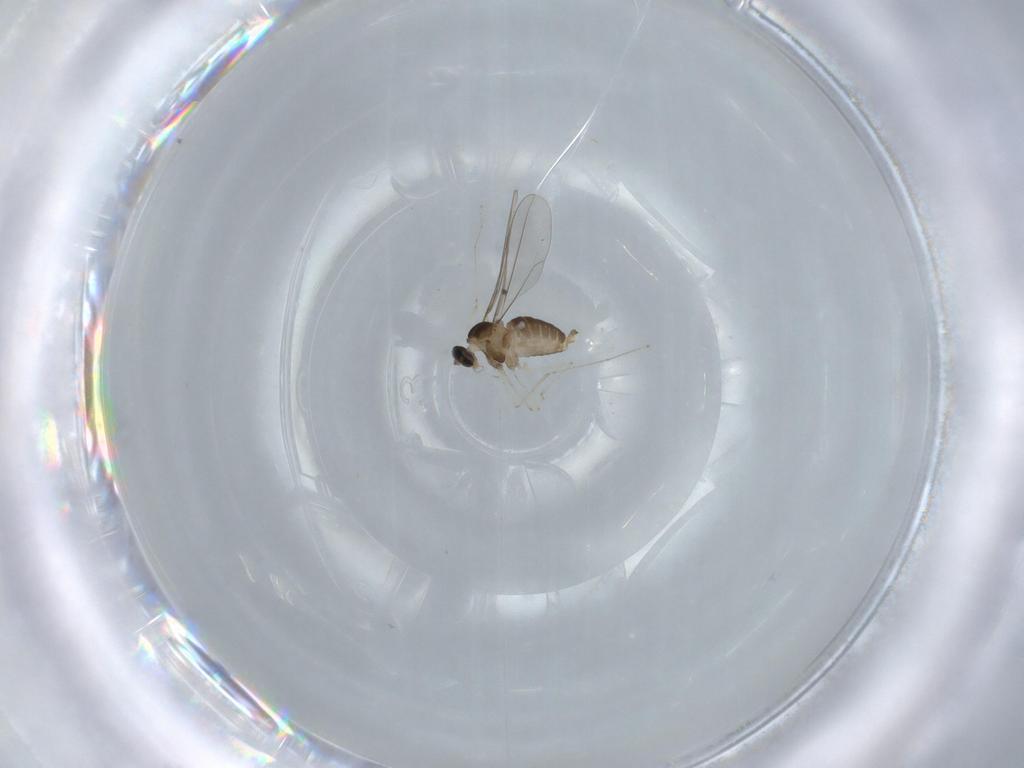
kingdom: Animalia
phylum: Arthropoda
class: Insecta
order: Diptera
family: Cecidomyiidae
